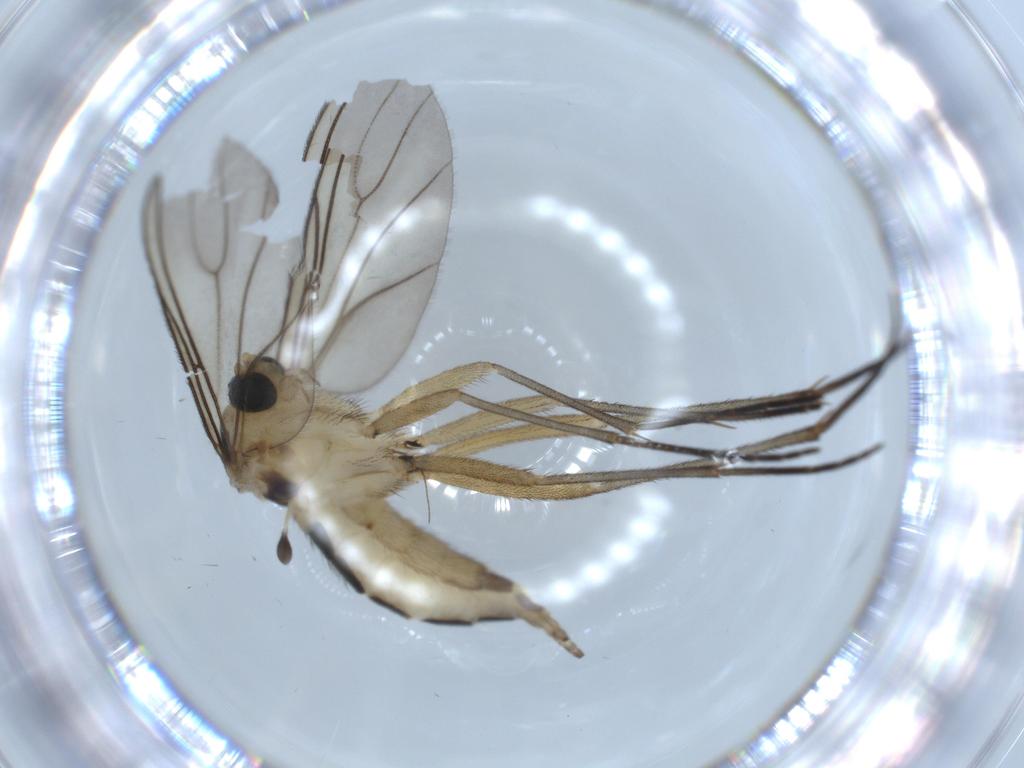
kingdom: Animalia
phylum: Arthropoda
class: Insecta
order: Diptera
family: Sciaridae
